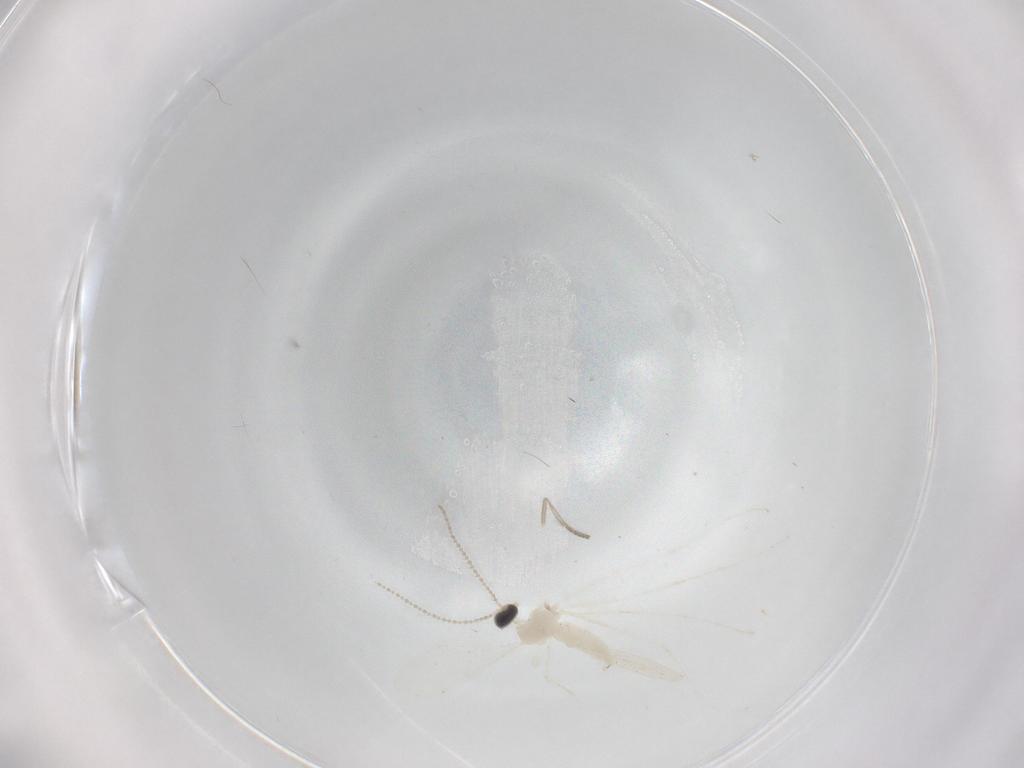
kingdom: Animalia
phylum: Arthropoda
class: Insecta
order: Diptera
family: Psychodidae
